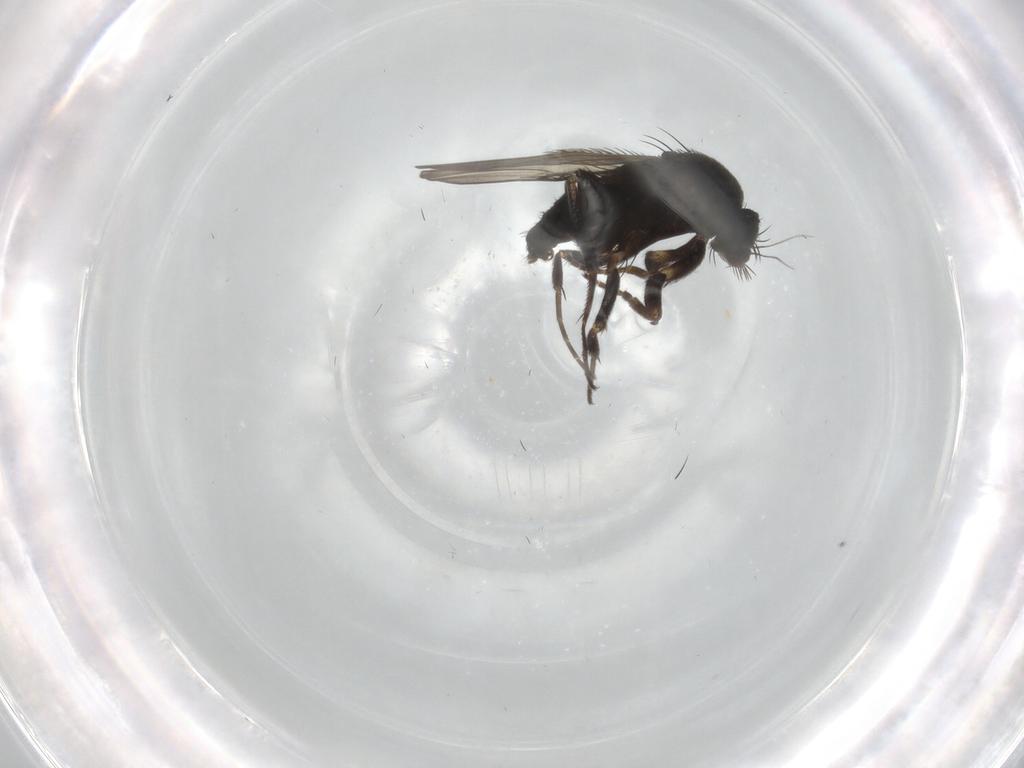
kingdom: Animalia
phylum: Arthropoda
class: Insecta
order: Diptera
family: Phoridae
